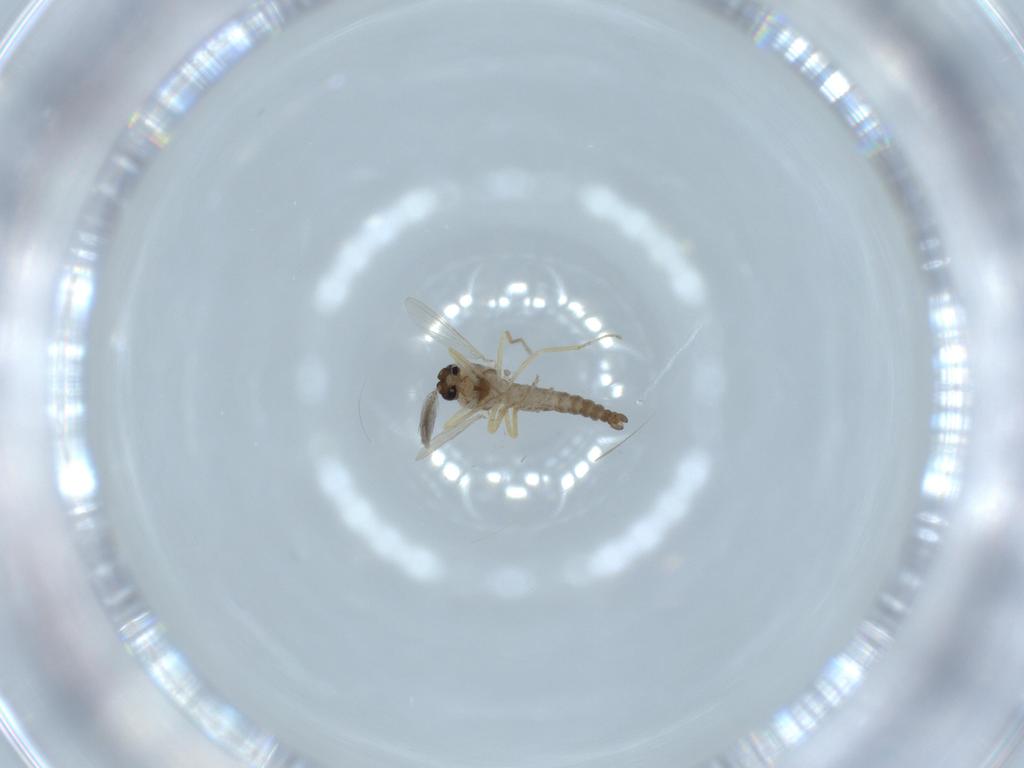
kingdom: Animalia
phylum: Arthropoda
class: Insecta
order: Diptera
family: Ceratopogonidae
